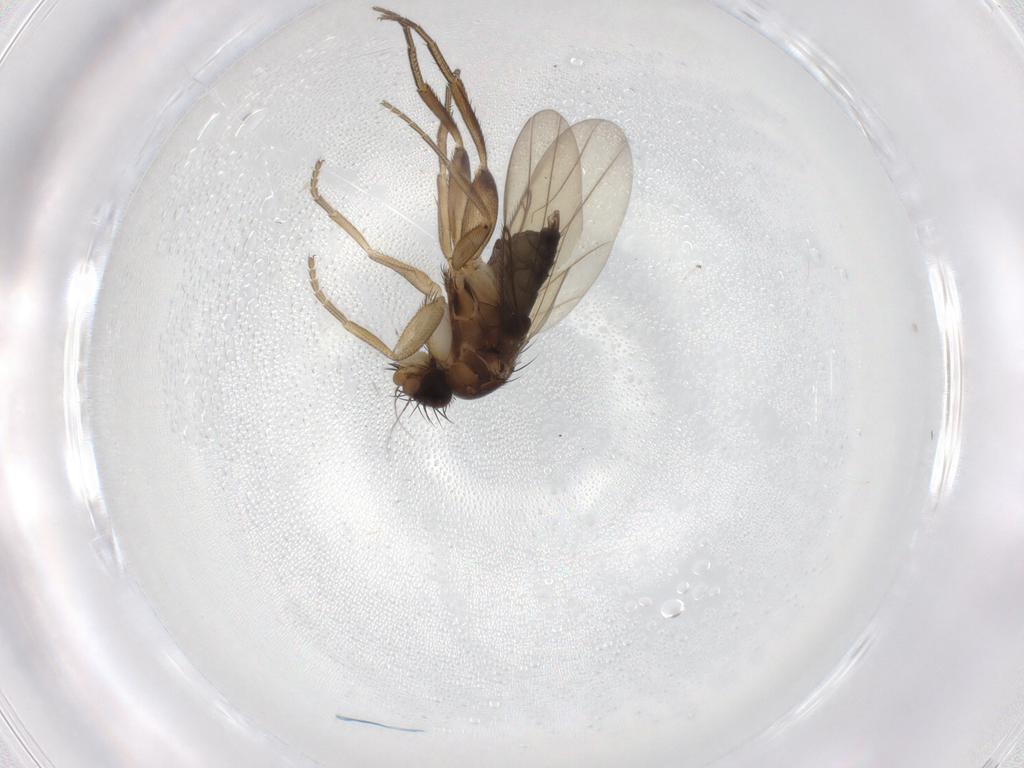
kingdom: Animalia
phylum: Arthropoda
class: Insecta
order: Diptera
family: Phoridae
